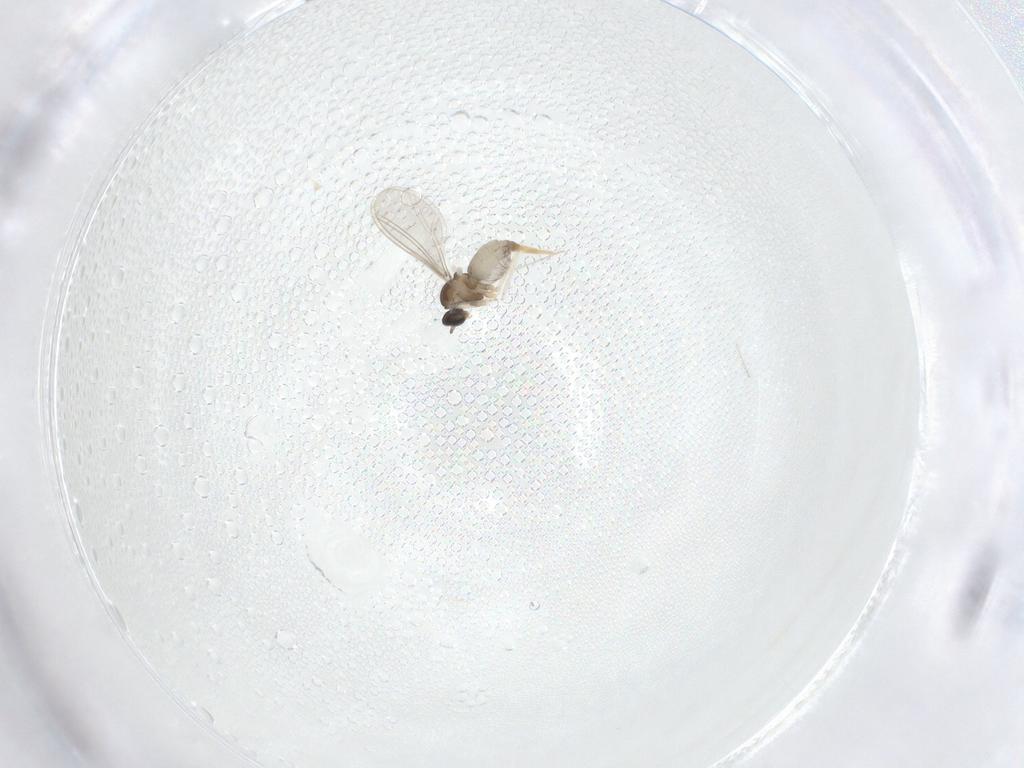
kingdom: Animalia
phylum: Arthropoda
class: Insecta
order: Diptera
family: Cecidomyiidae
